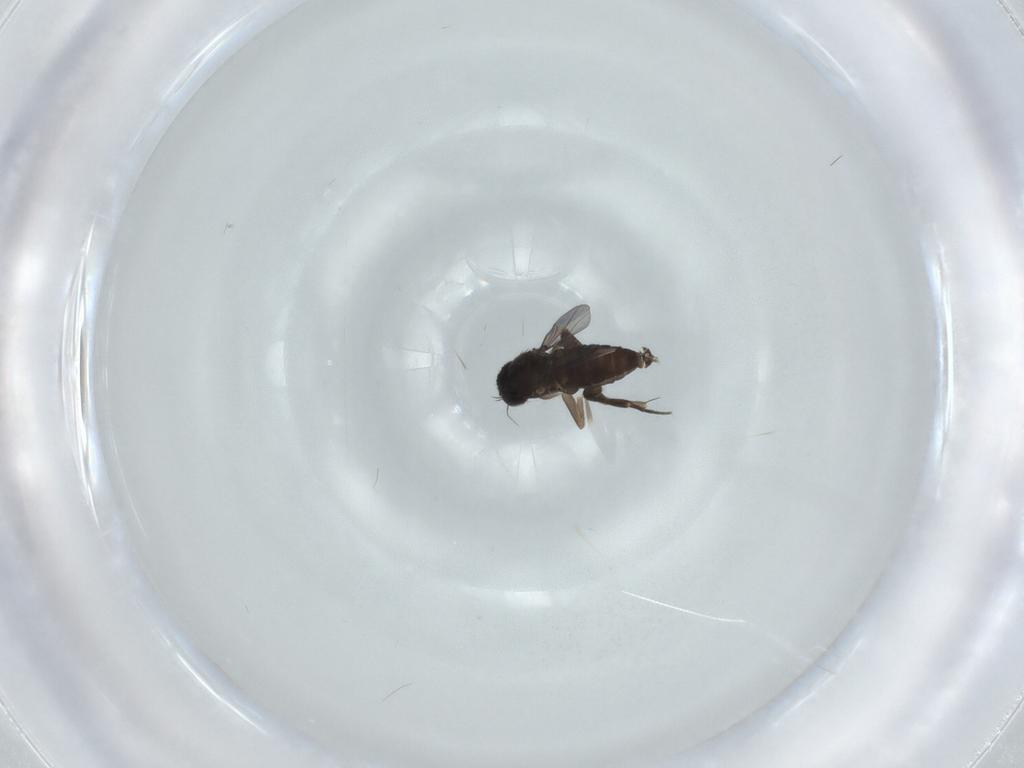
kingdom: Animalia
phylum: Arthropoda
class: Insecta
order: Diptera
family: Phoridae
